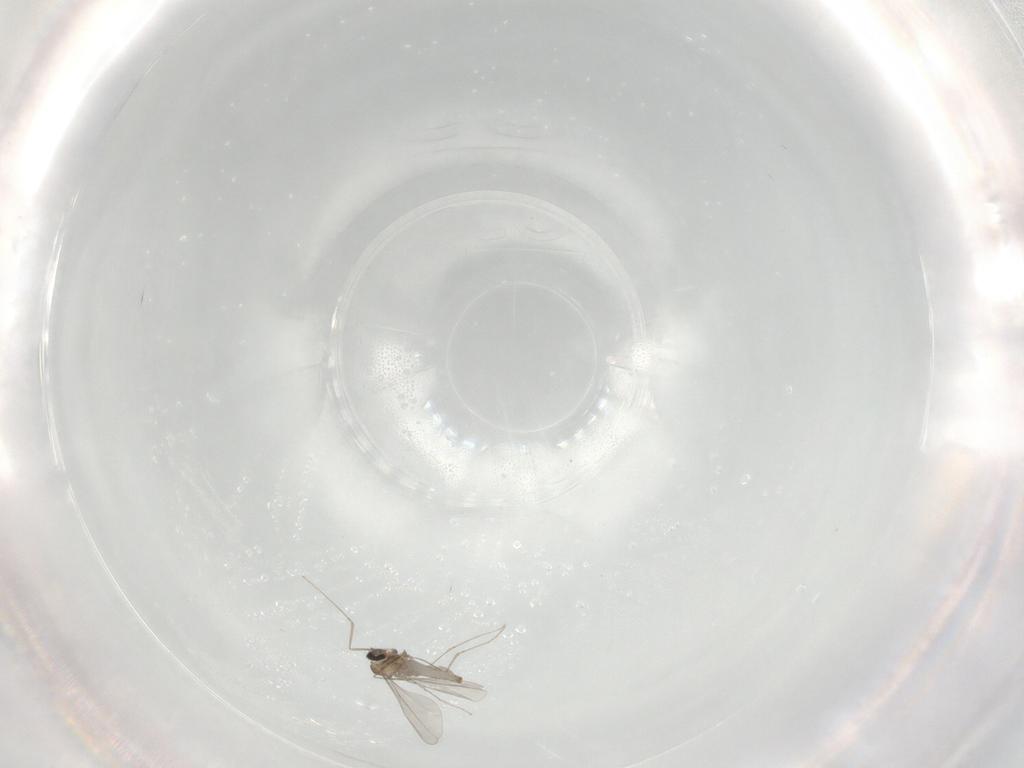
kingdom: Animalia
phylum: Arthropoda
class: Insecta
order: Diptera
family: Cecidomyiidae
